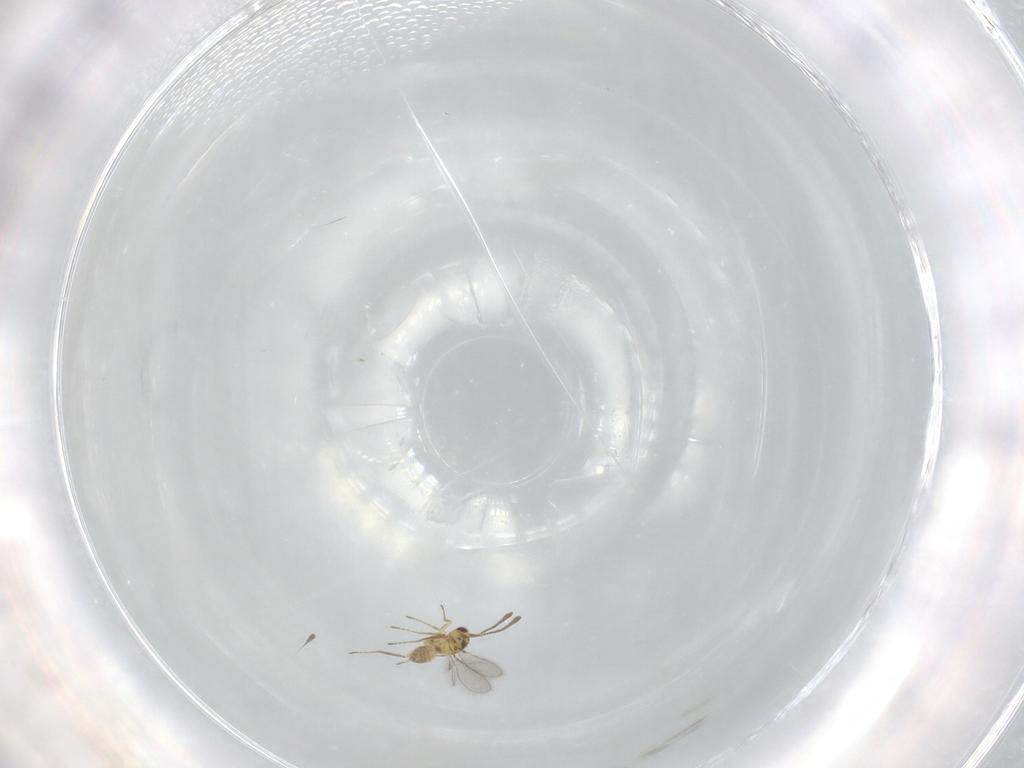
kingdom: Animalia
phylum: Arthropoda
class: Insecta
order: Hymenoptera
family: Mymaridae
